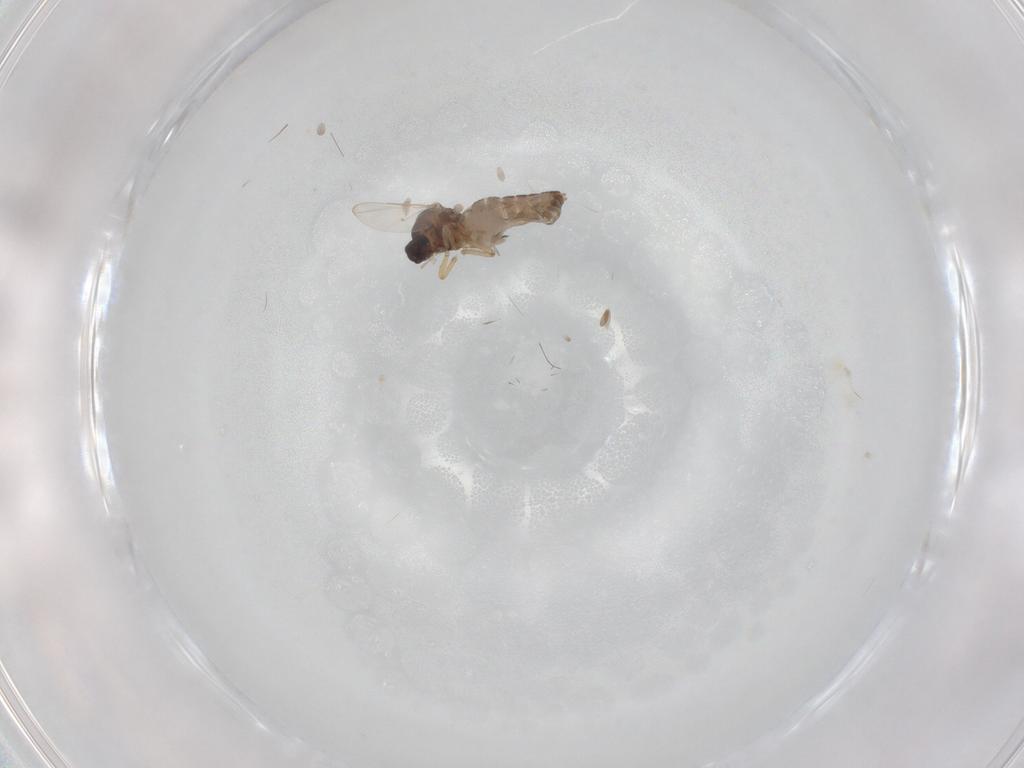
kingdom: Animalia
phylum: Arthropoda
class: Insecta
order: Diptera
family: Ceratopogonidae
